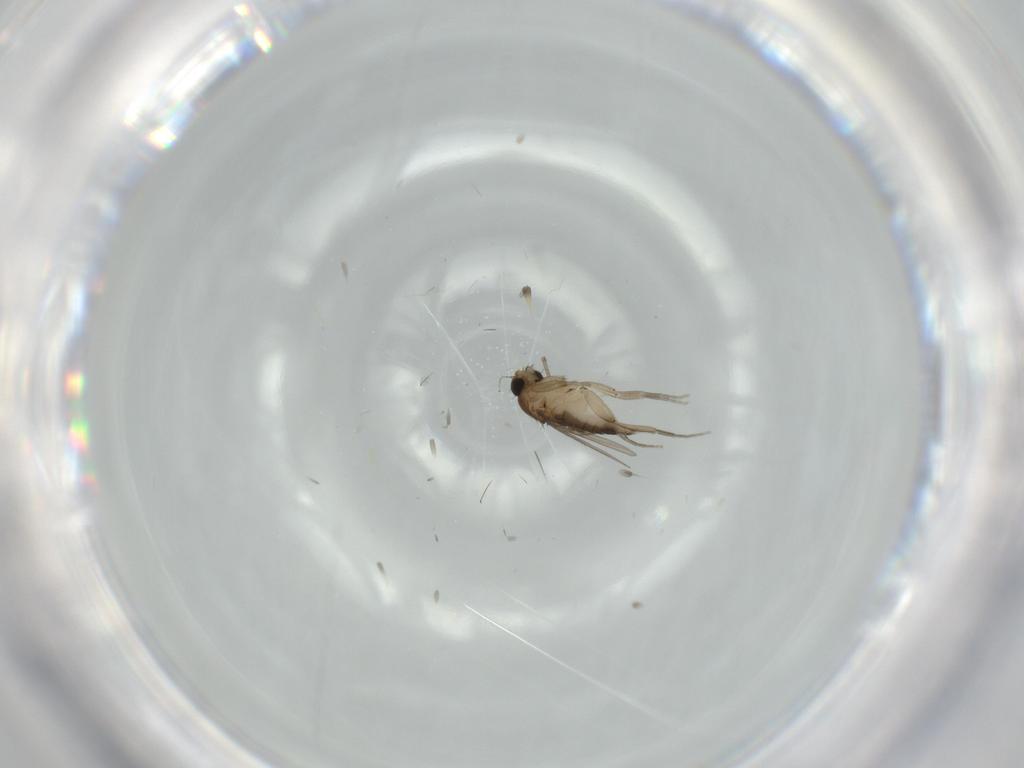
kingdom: Animalia
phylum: Arthropoda
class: Insecta
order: Diptera
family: Phoridae
